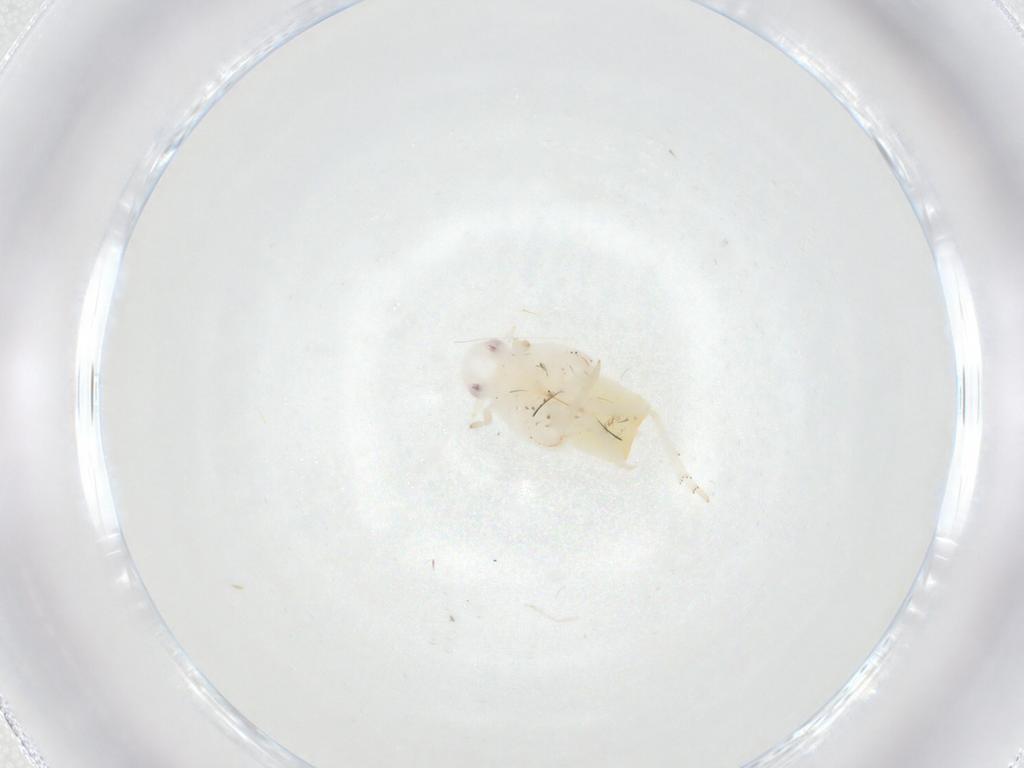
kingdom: Animalia
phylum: Arthropoda
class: Insecta
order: Hemiptera
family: Flatidae
